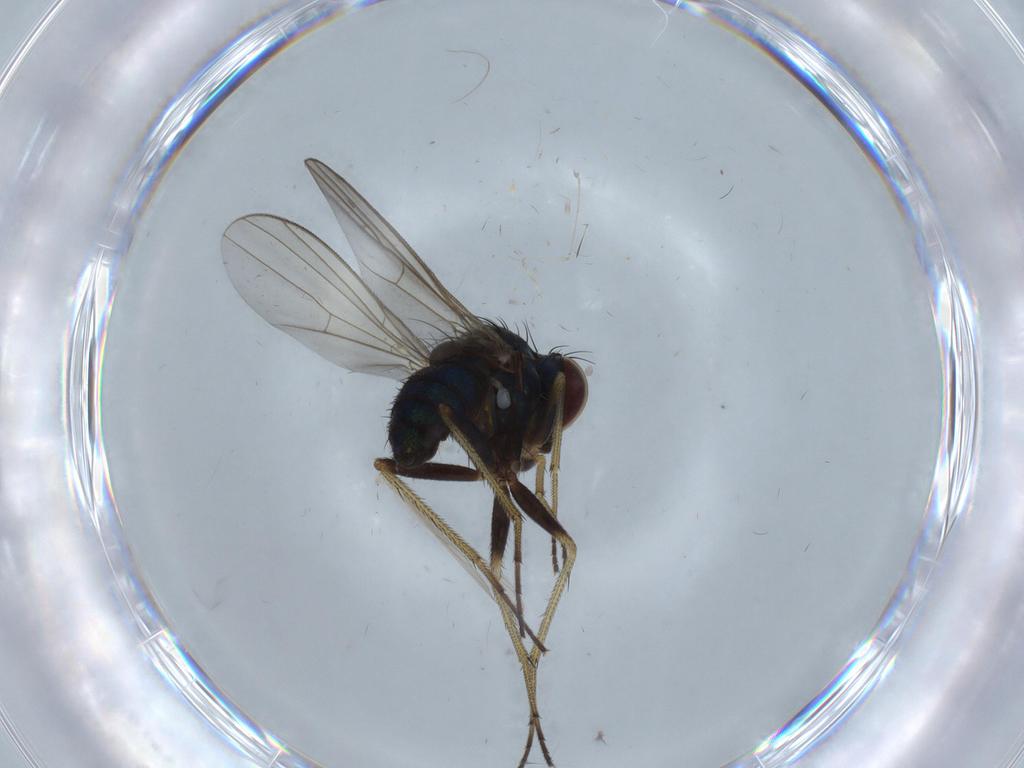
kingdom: Animalia
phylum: Arthropoda
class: Insecta
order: Diptera
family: Dolichopodidae
